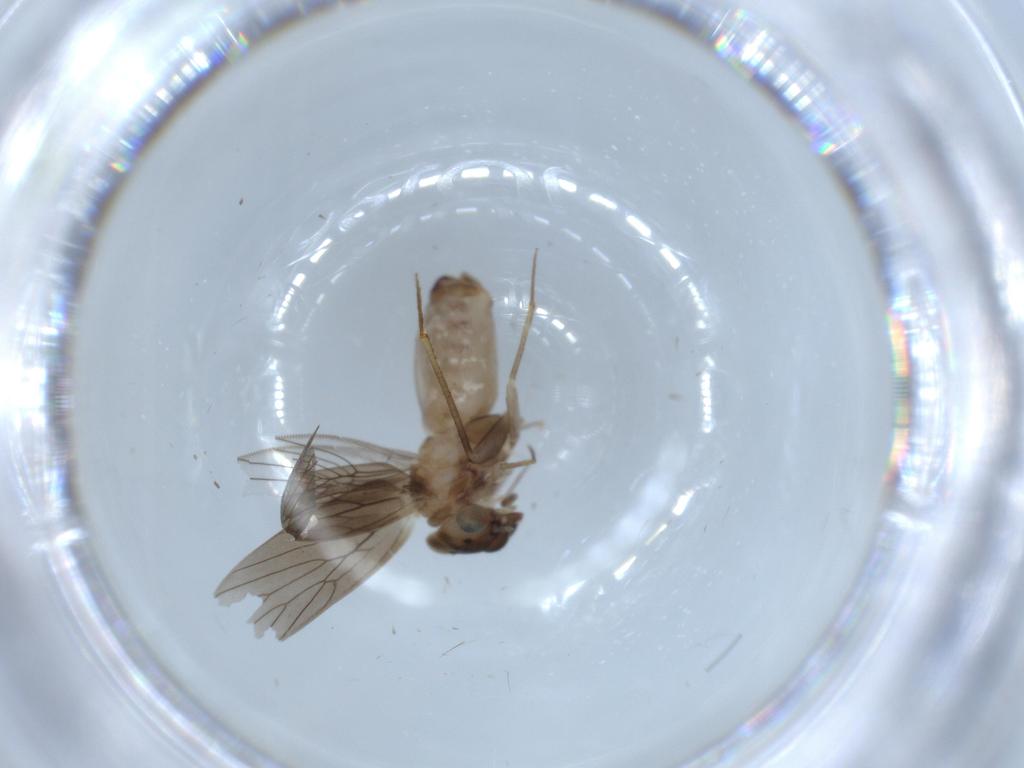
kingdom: Animalia
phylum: Arthropoda
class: Insecta
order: Psocodea
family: Lepidopsocidae
